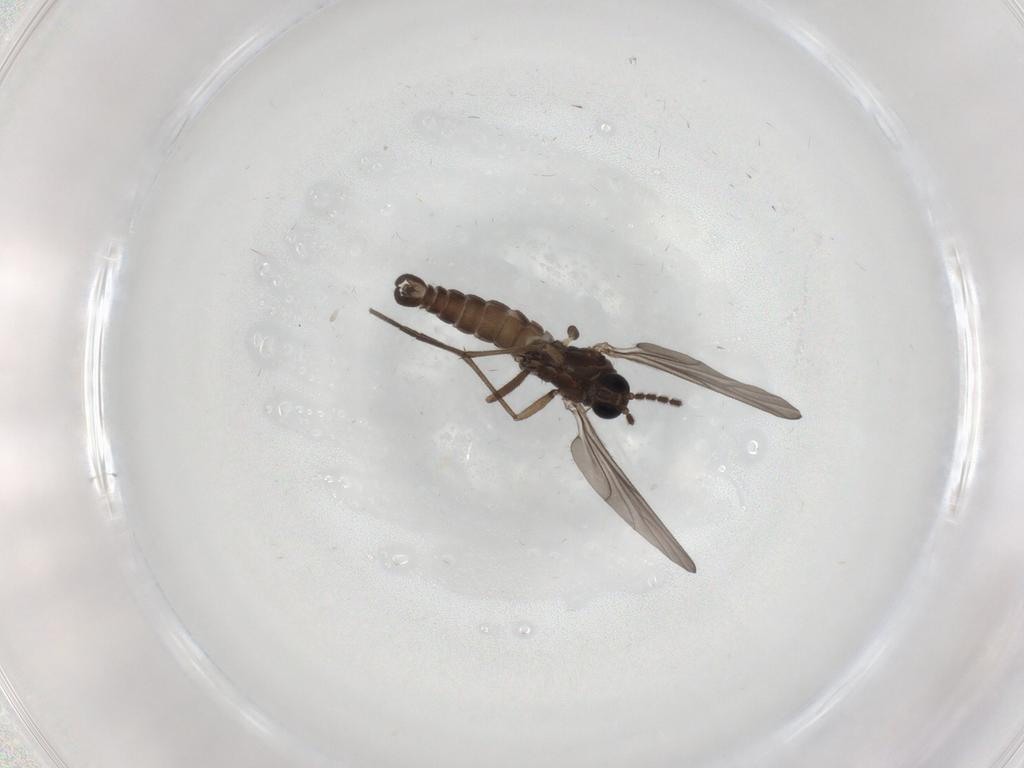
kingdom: Animalia
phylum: Arthropoda
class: Insecta
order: Diptera
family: Sciaridae
